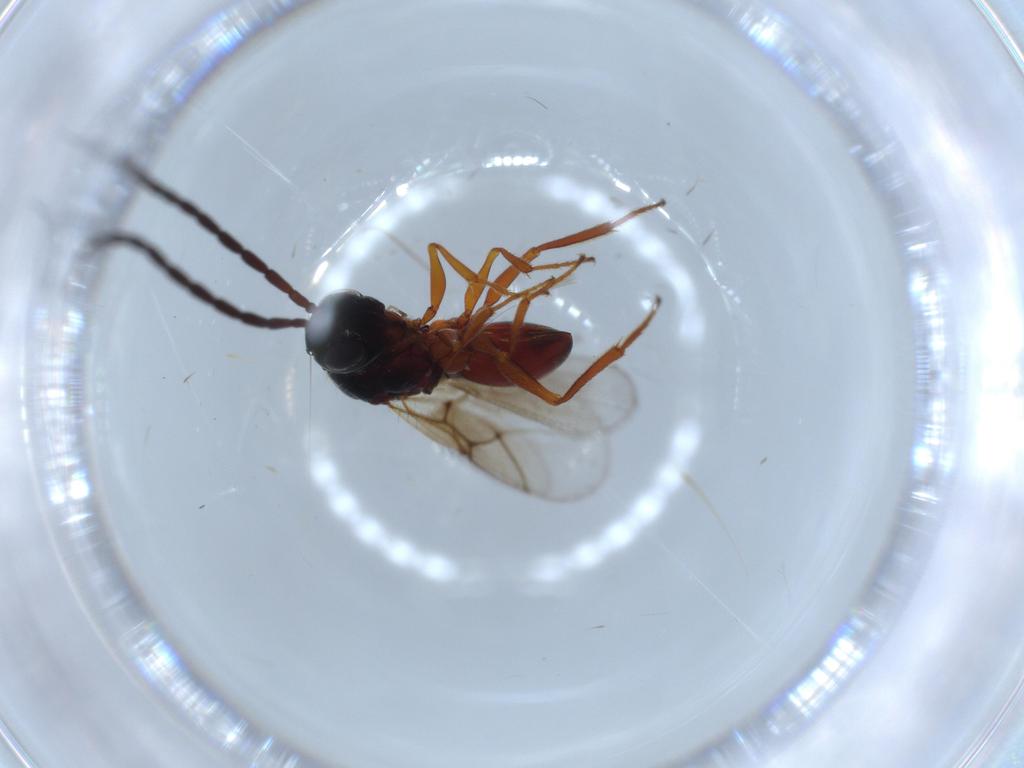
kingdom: Animalia
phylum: Arthropoda
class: Insecta
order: Hymenoptera
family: Figitidae
